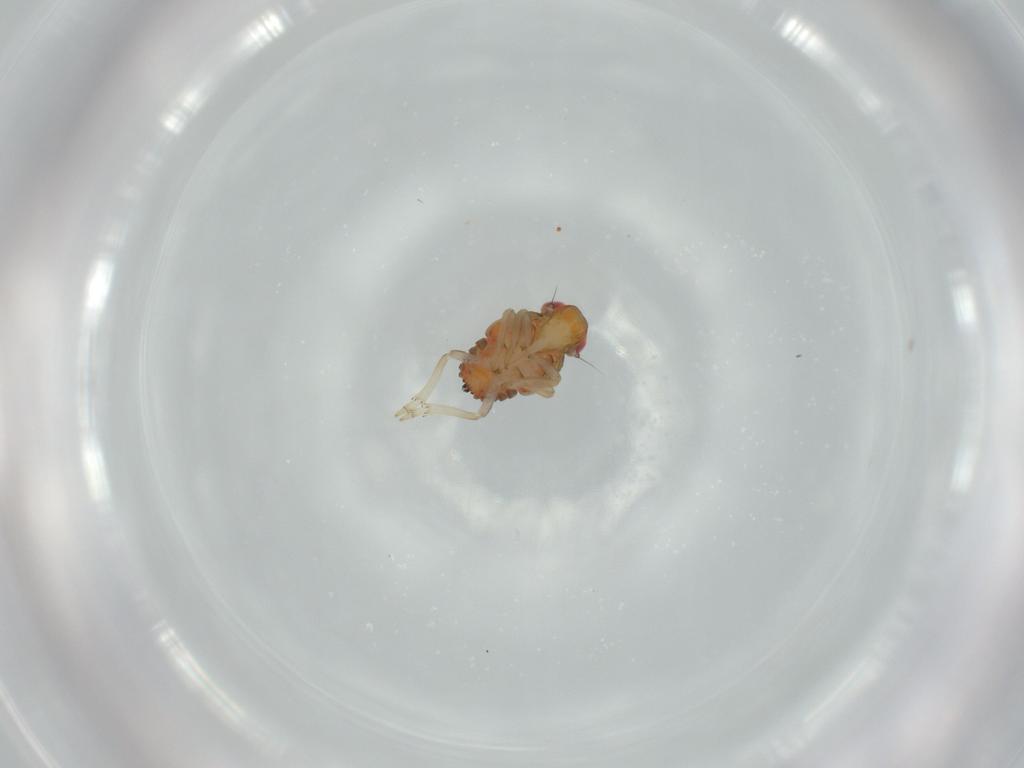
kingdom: Animalia
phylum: Arthropoda
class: Insecta
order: Hemiptera
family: Issidae
